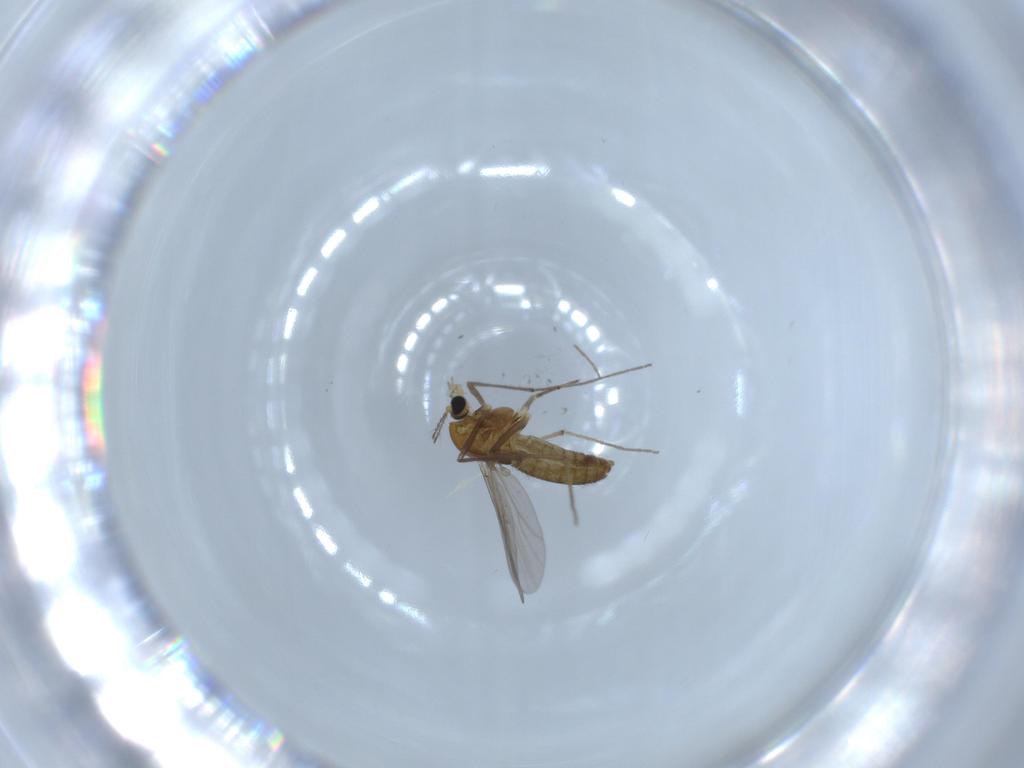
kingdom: Animalia
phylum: Arthropoda
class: Insecta
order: Diptera
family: Chironomidae
